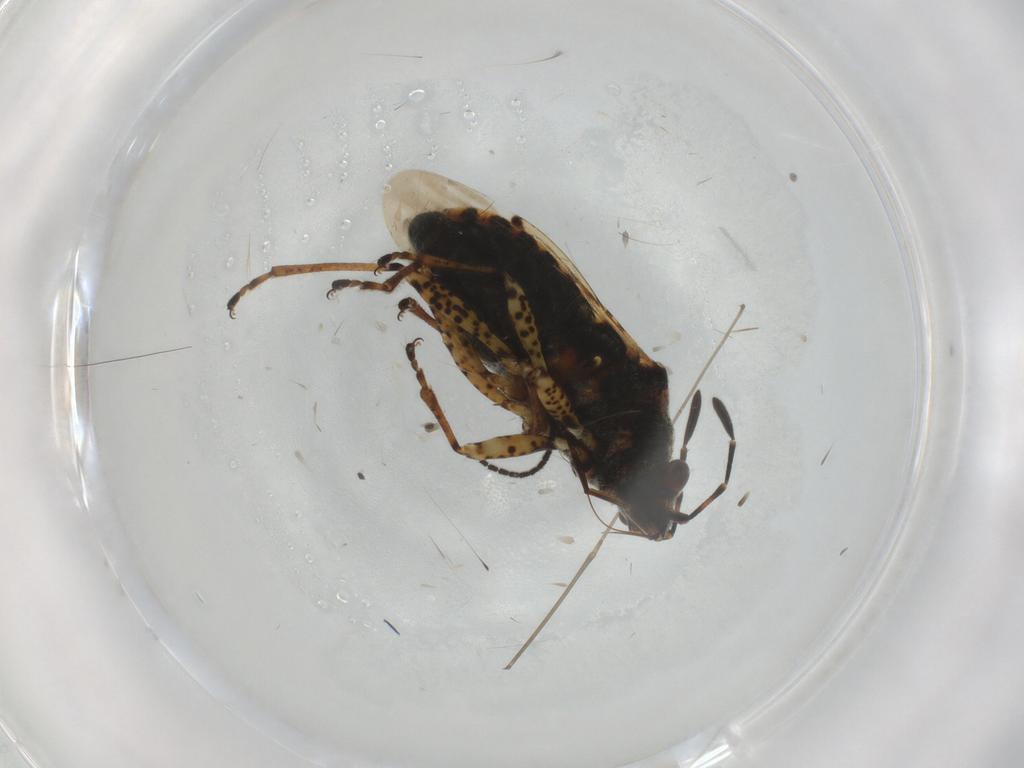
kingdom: Animalia
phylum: Arthropoda
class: Insecta
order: Hemiptera
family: Lygaeidae
